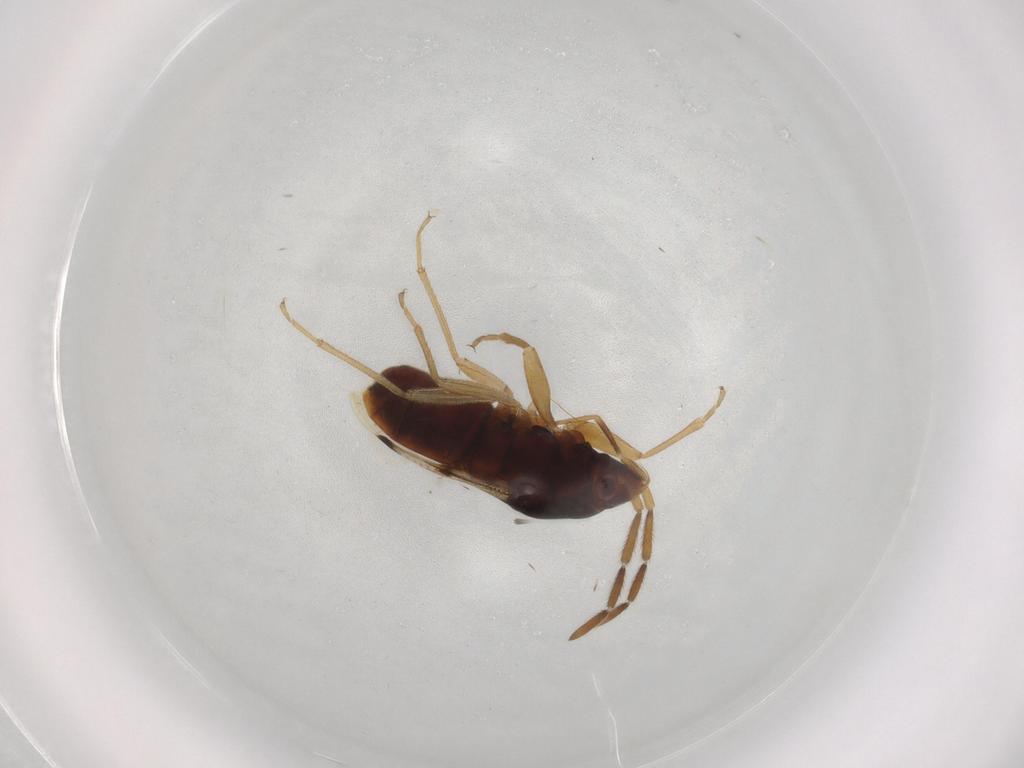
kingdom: Animalia
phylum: Arthropoda
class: Insecta
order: Hemiptera
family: Rhyparochromidae
